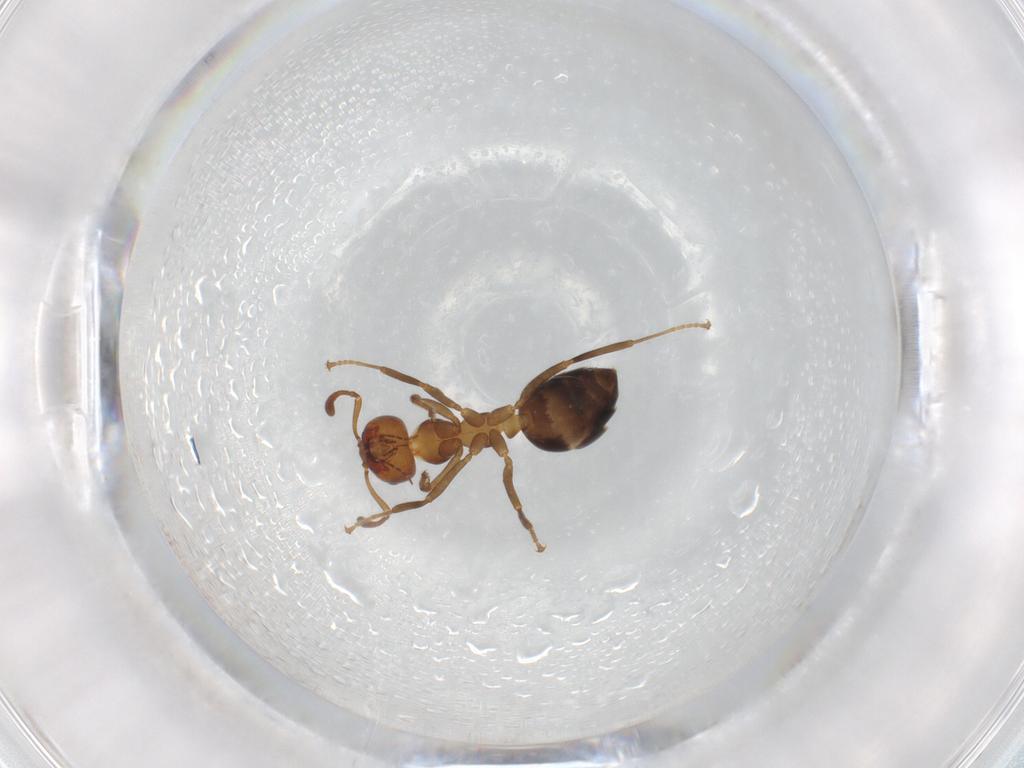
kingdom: Animalia
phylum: Arthropoda
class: Insecta
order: Hymenoptera
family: Formicidae
